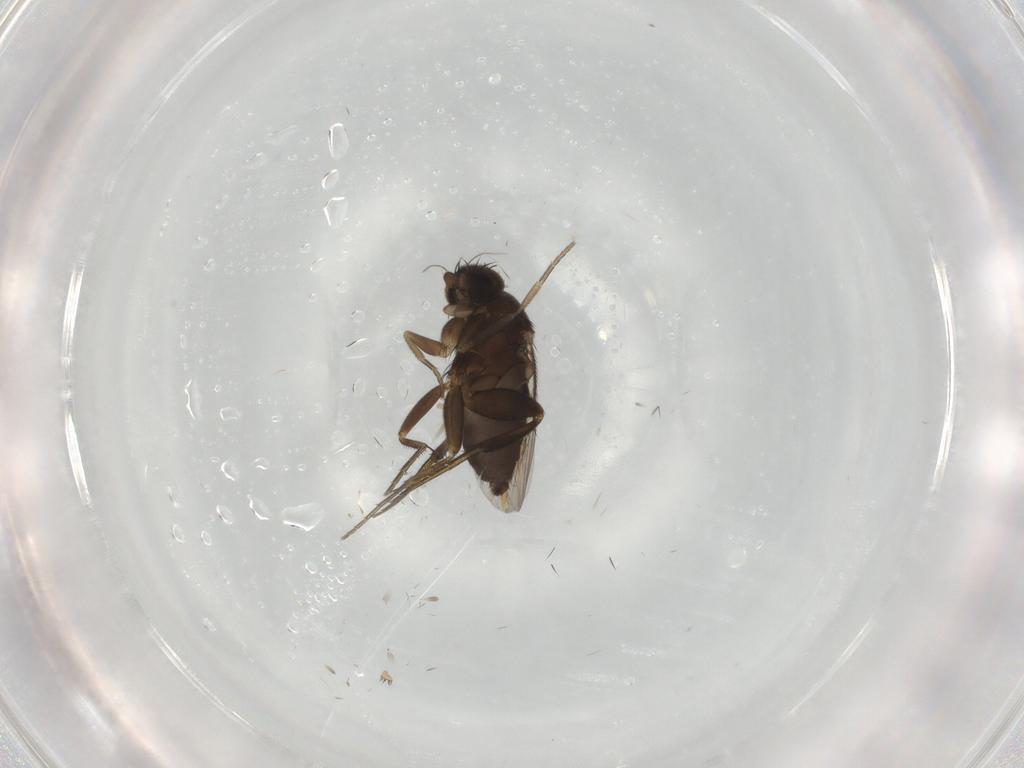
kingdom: Animalia
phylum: Arthropoda
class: Insecta
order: Diptera
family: Phoridae
